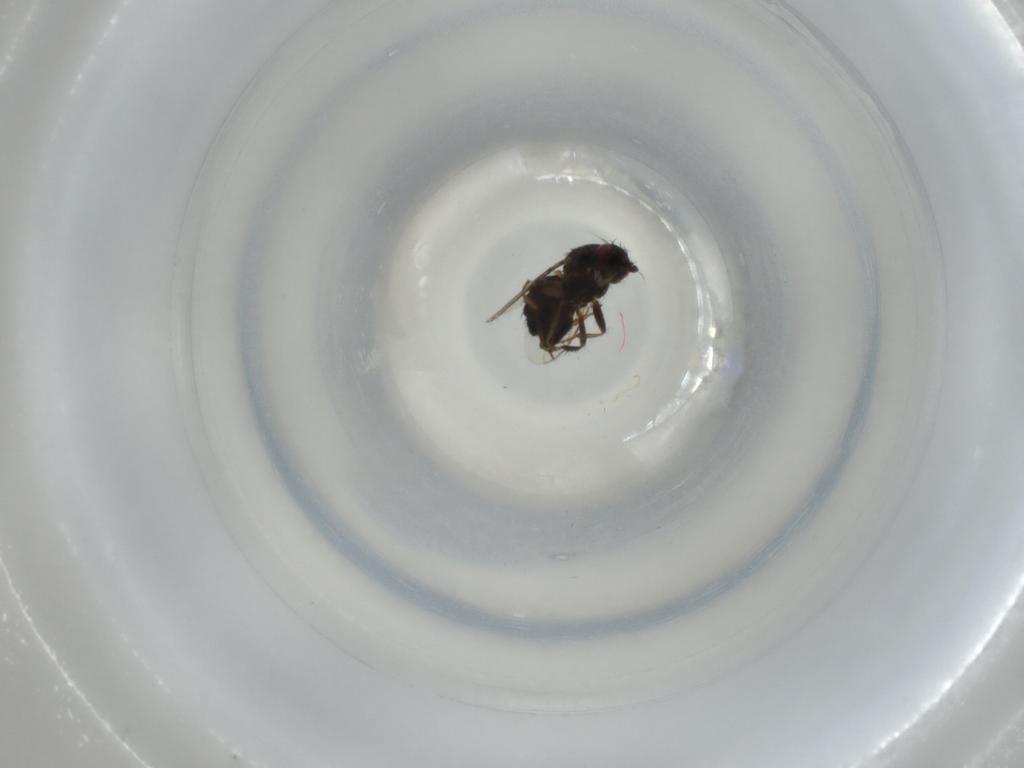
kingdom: Animalia
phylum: Arthropoda
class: Insecta
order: Diptera
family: Sphaeroceridae
